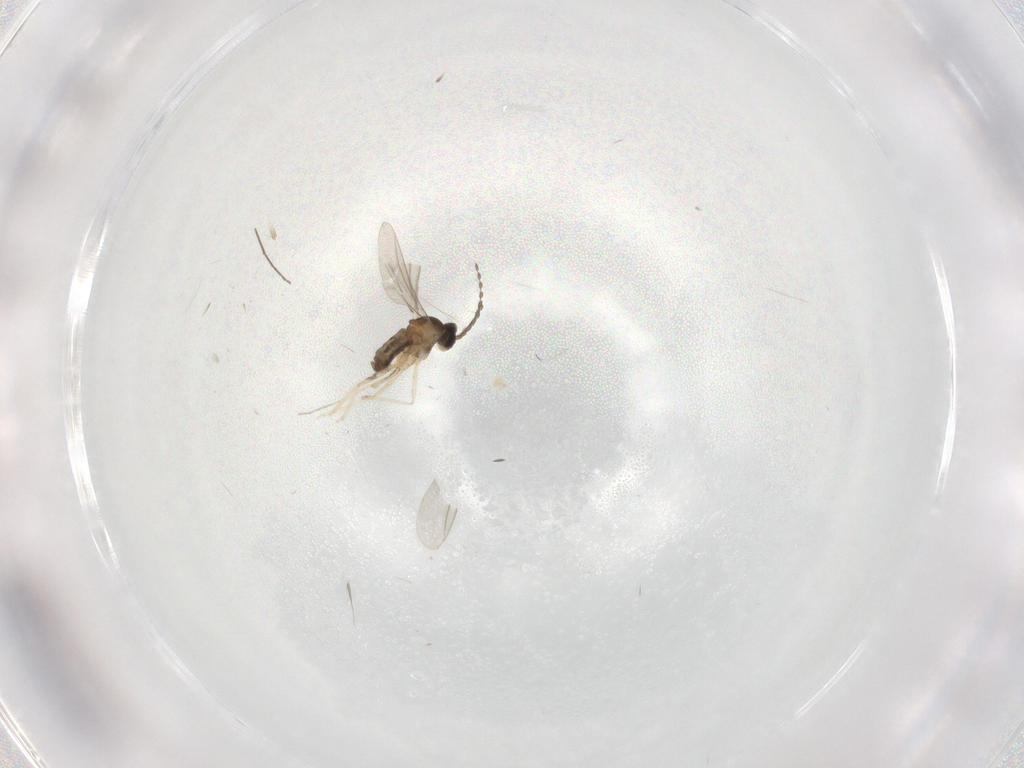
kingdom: Animalia
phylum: Arthropoda
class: Insecta
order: Diptera
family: Cecidomyiidae
